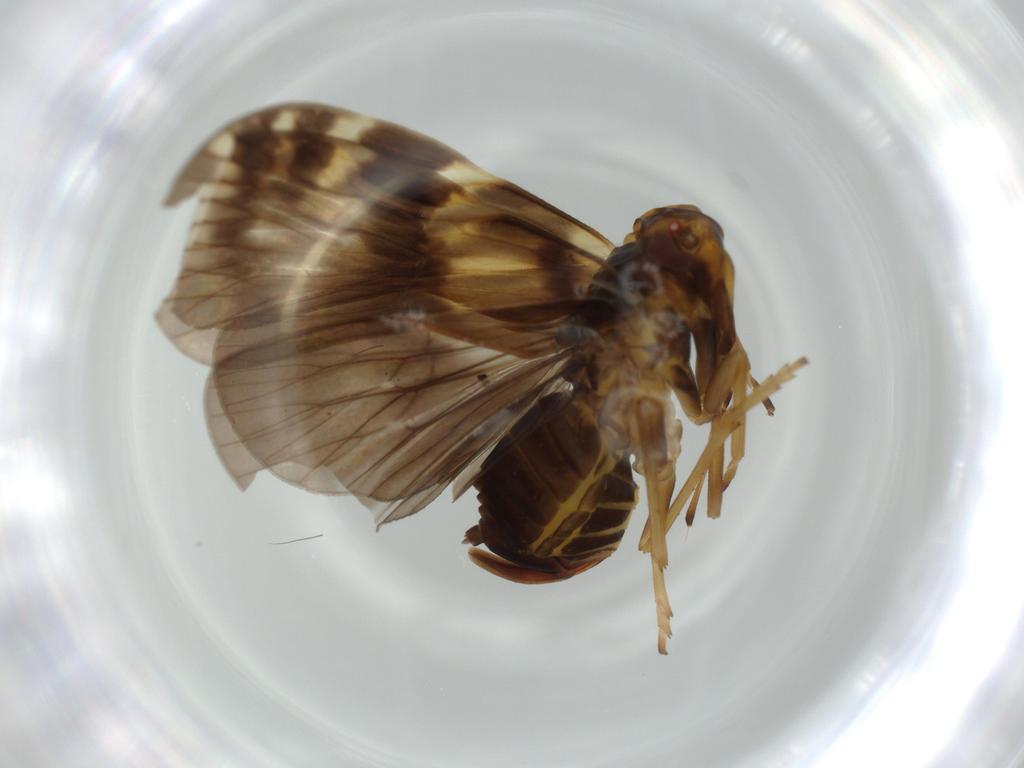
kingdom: Animalia
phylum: Arthropoda
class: Insecta
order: Hemiptera
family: Cixiidae
